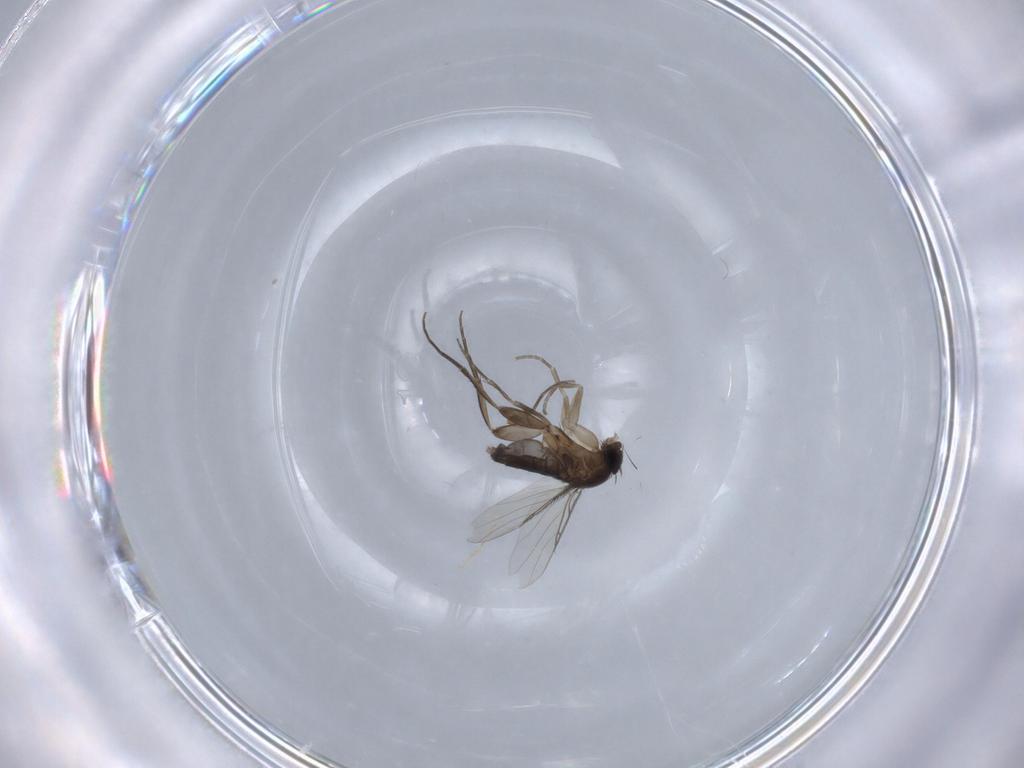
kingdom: Animalia
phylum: Arthropoda
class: Insecta
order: Diptera
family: Phoridae
